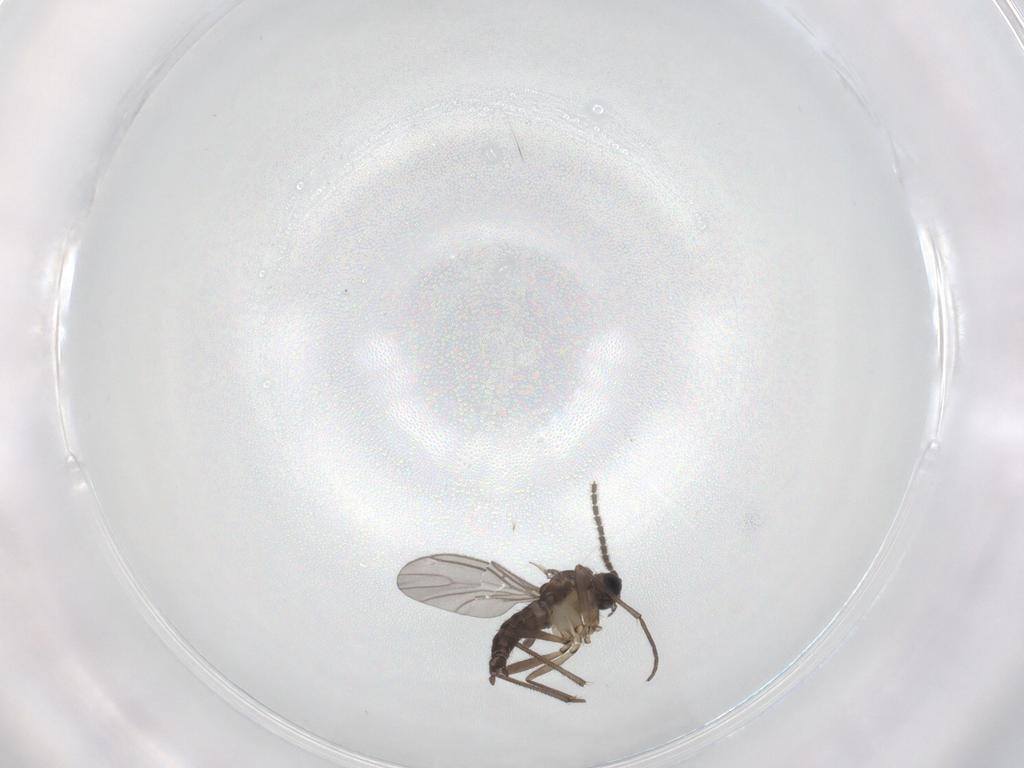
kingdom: Animalia
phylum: Arthropoda
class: Insecta
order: Diptera
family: Sciaridae
